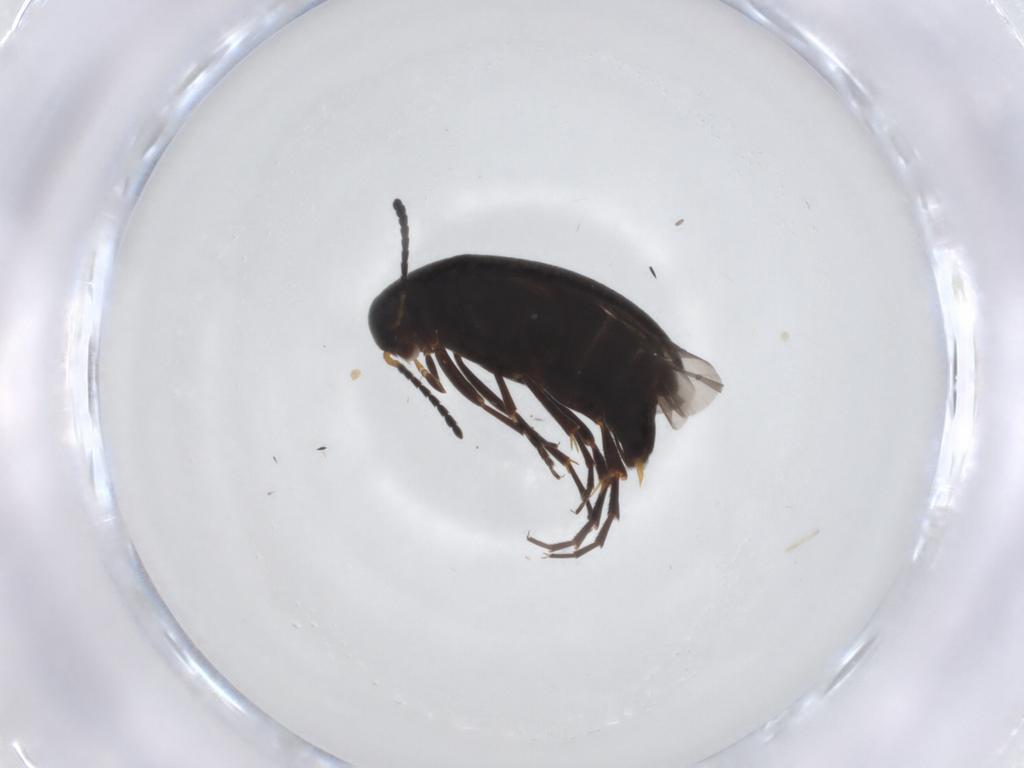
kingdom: Animalia
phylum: Arthropoda
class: Insecta
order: Coleoptera
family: Scraptiidae
